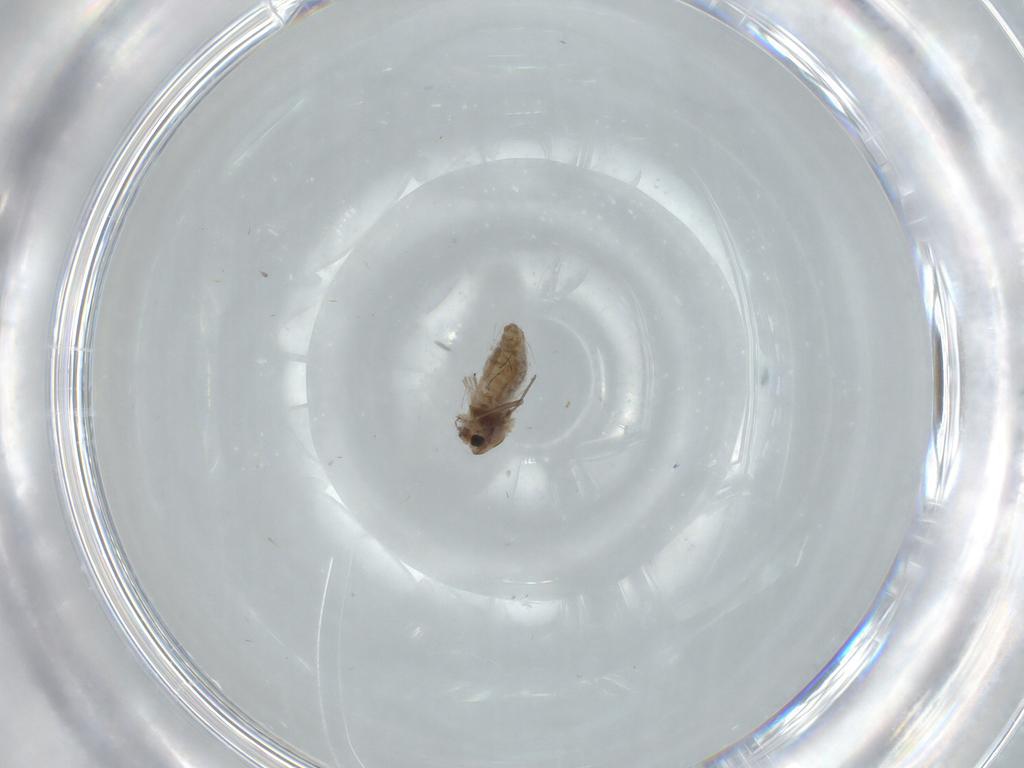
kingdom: Animalia
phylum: Arthropoda
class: Insecta
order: Diptera
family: Chironomidae
